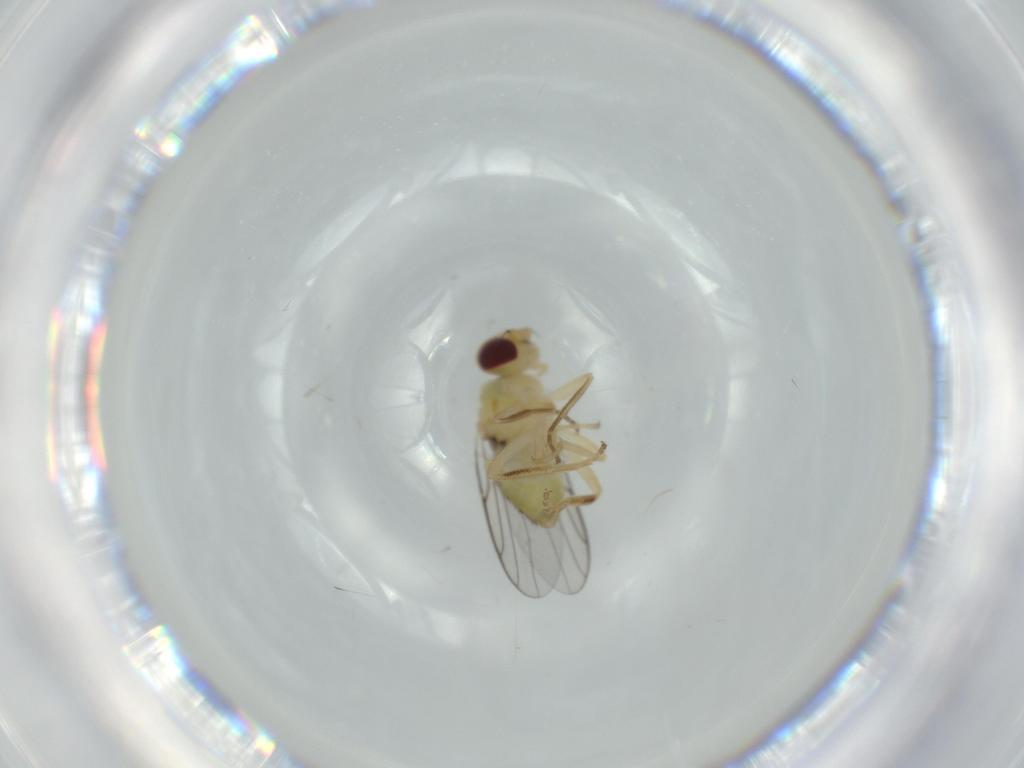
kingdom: Animalia
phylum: Arthropoda
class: Insecta
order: Diptera
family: Chloropidae
